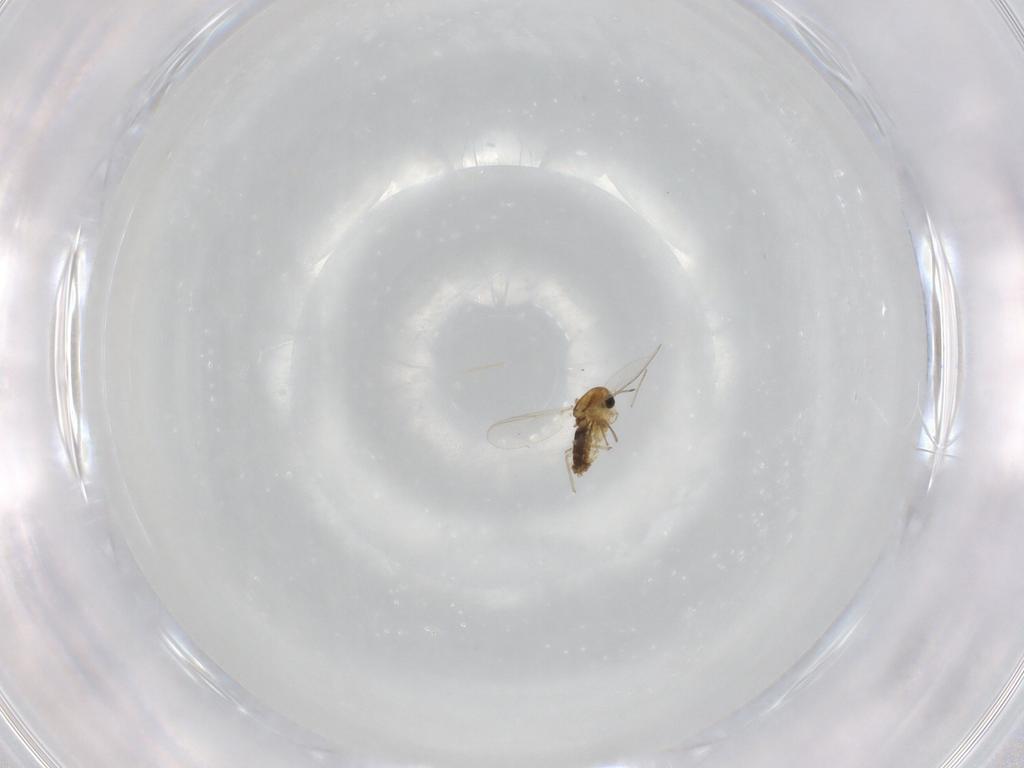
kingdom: Animalia
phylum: Arthropoda
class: Insecta
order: Diptera
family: Chironomidae
